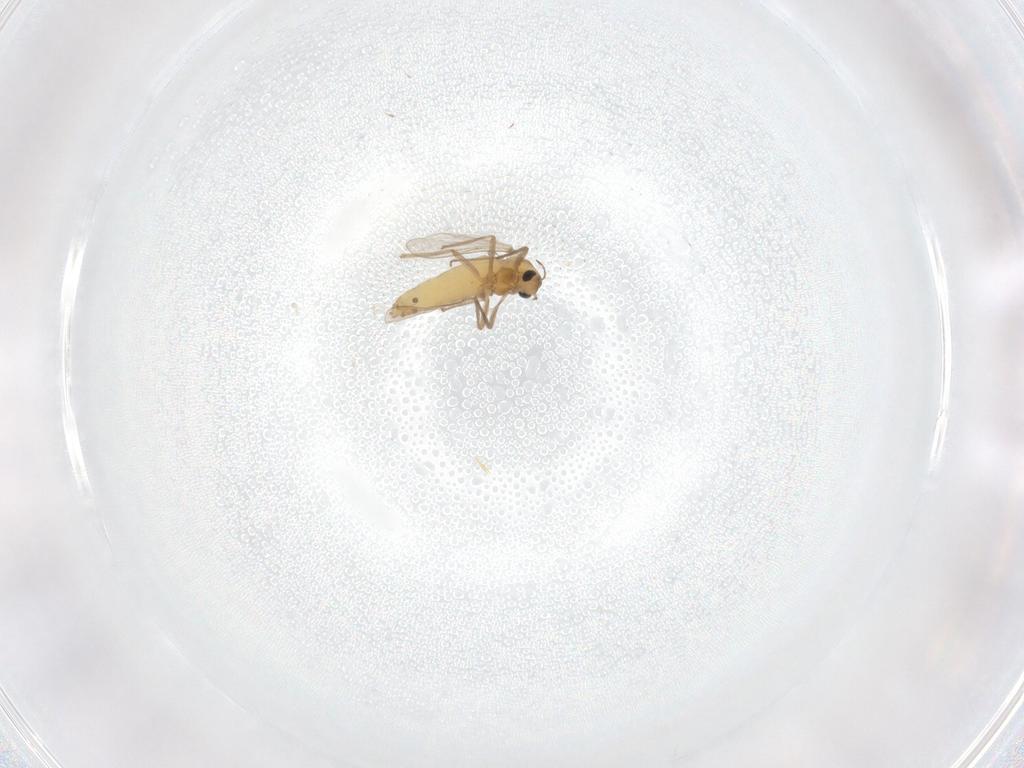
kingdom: Animalia
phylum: Arthropoda
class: Insecta
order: Diptera
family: Chironomidae
